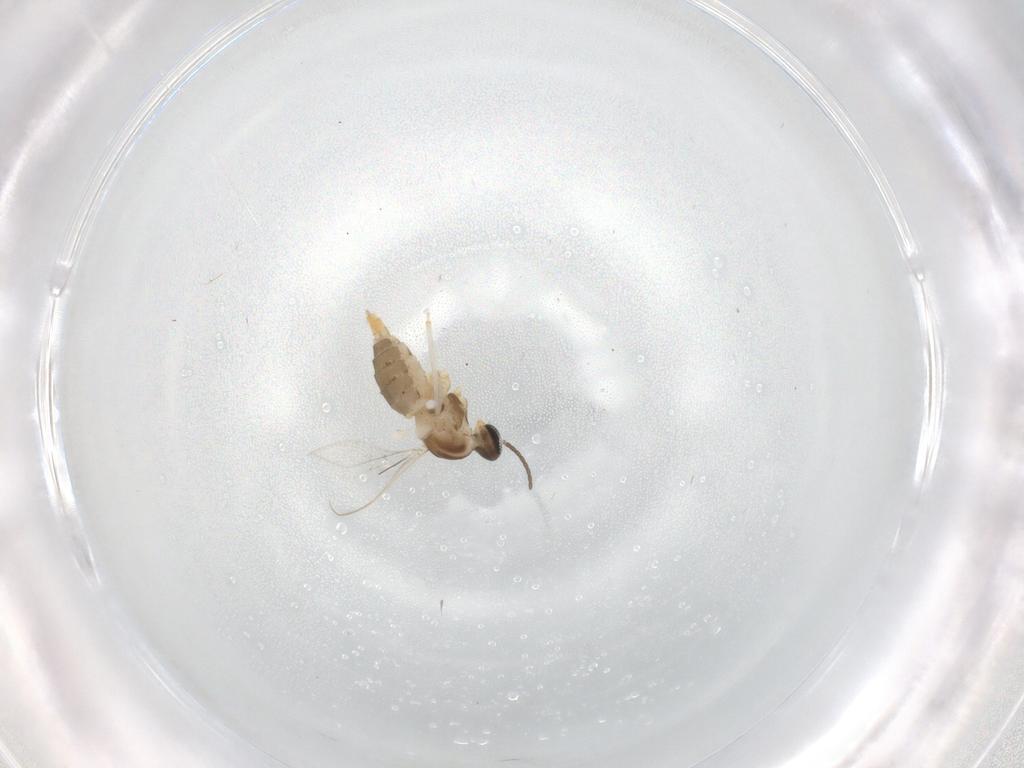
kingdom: Animalia
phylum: Arthropoda
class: Insecta
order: Diptera
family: Cecidomyiidae
